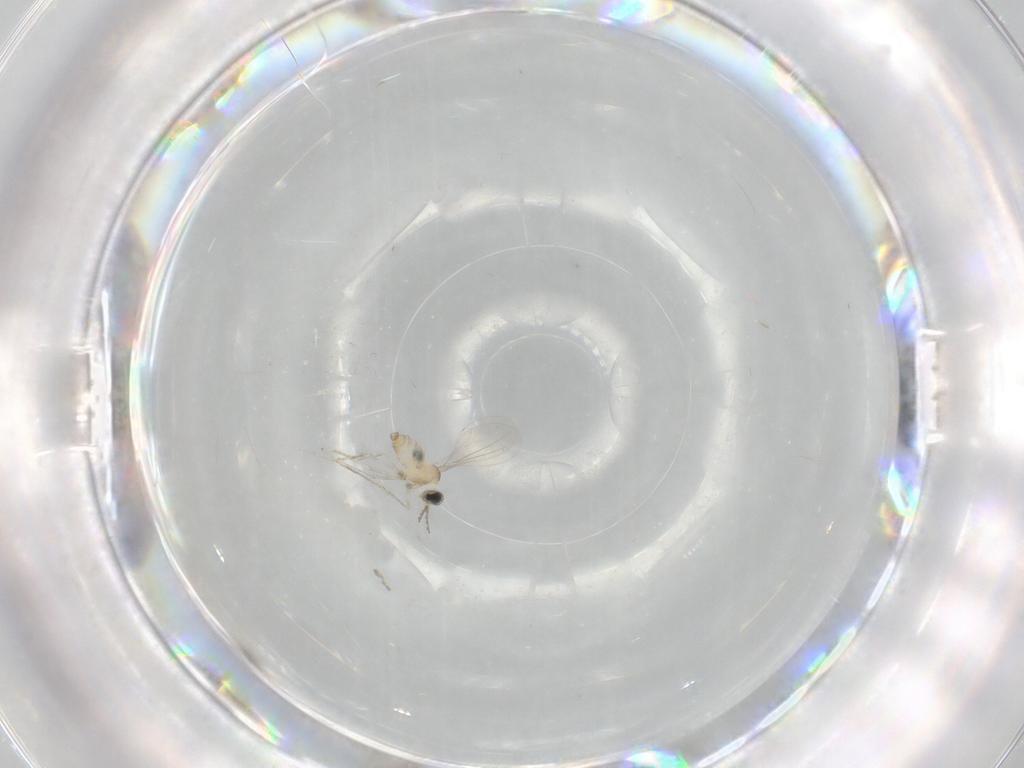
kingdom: Animalia
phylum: Arthropoda
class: Insecta
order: Diptera
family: Cecidomyiidae
